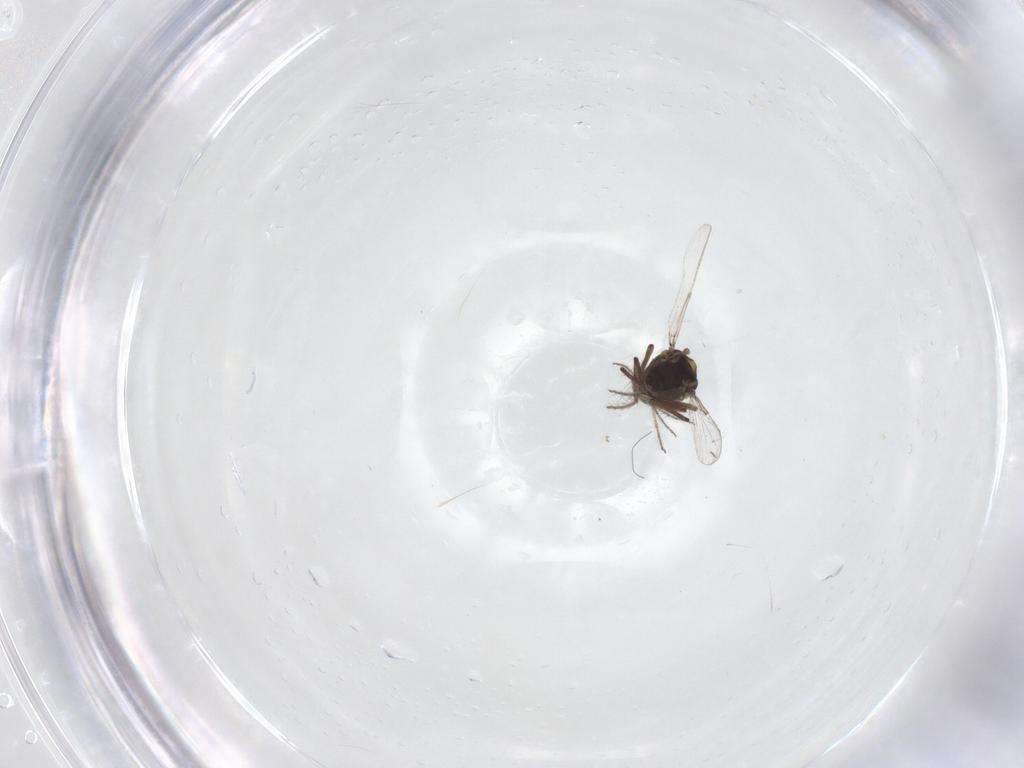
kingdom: Animalia
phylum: Arthropoda
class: Insecta
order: Diptera
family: Ceratopogonidae
